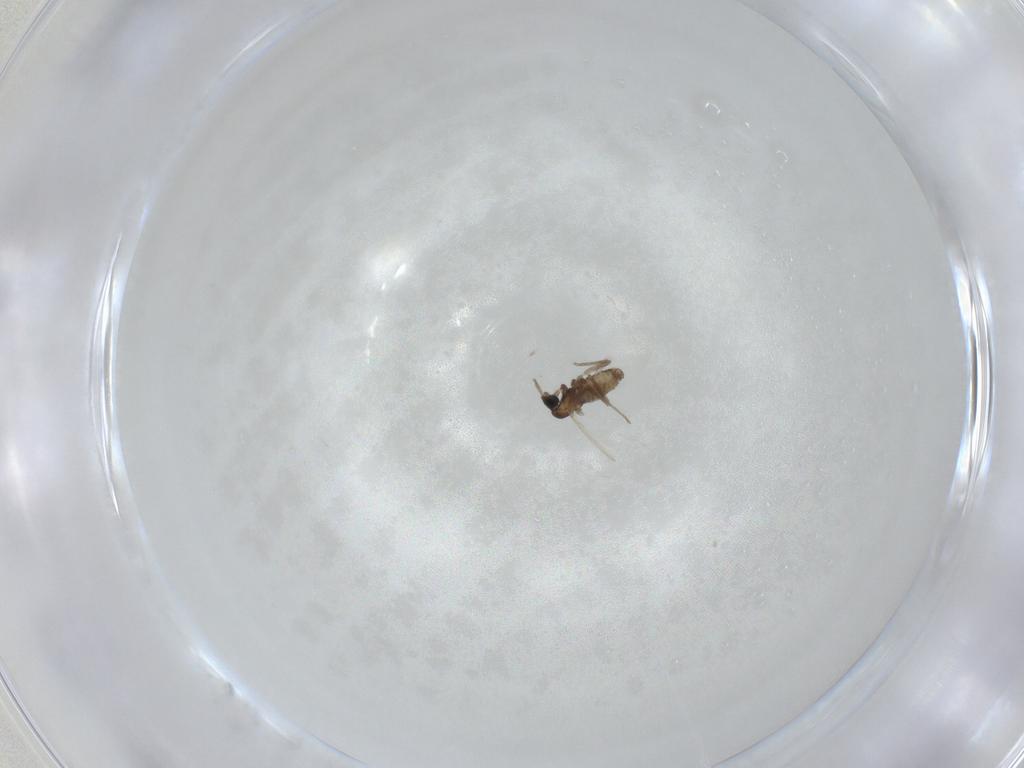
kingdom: Animalia
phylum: Arthropoda
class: Insecta
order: Diptera
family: Cecidomyiidae
